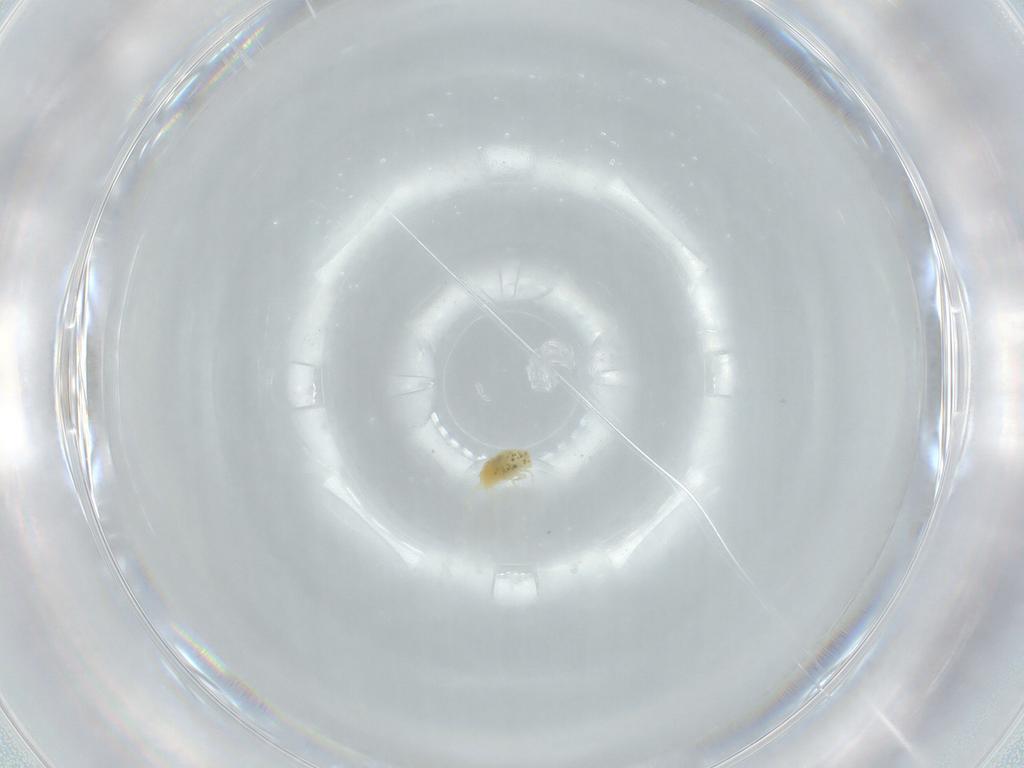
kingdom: Animalia
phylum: Arthropoda
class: Arachnida
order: Trombidiformes
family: Tetranychidae
